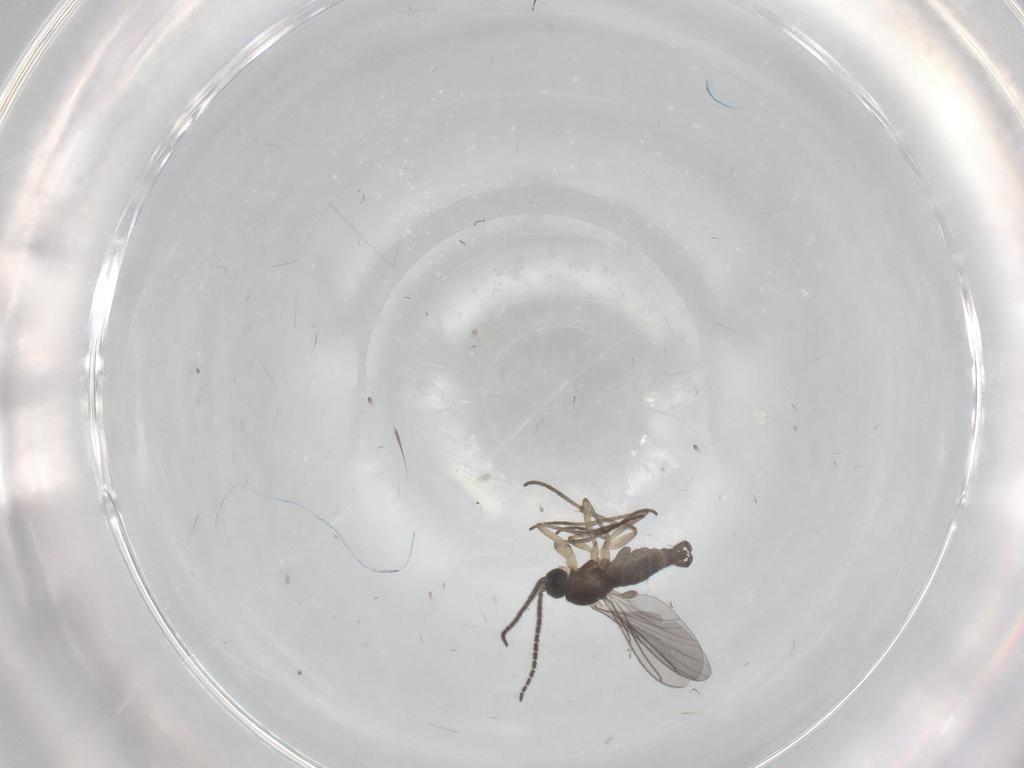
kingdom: Animalia
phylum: Arthropoda
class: Insecta
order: Diptera
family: Sciaridae
